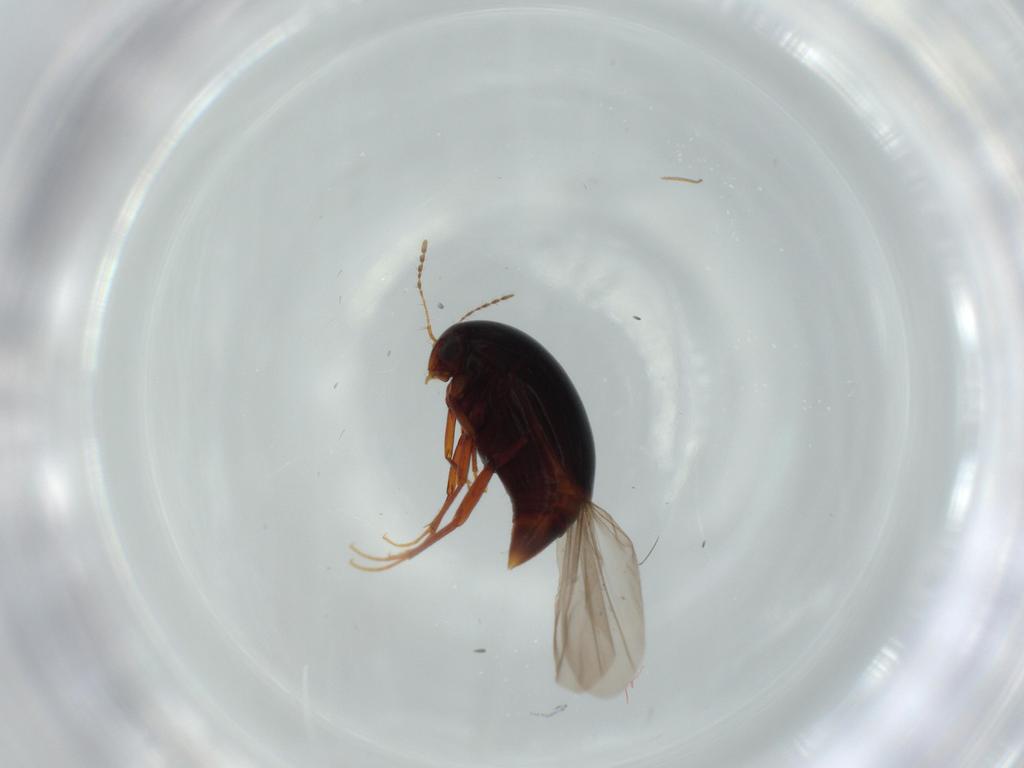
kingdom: Animalia
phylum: Arthropoda
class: Insecta
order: Coleoptera
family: Staphylinidae
